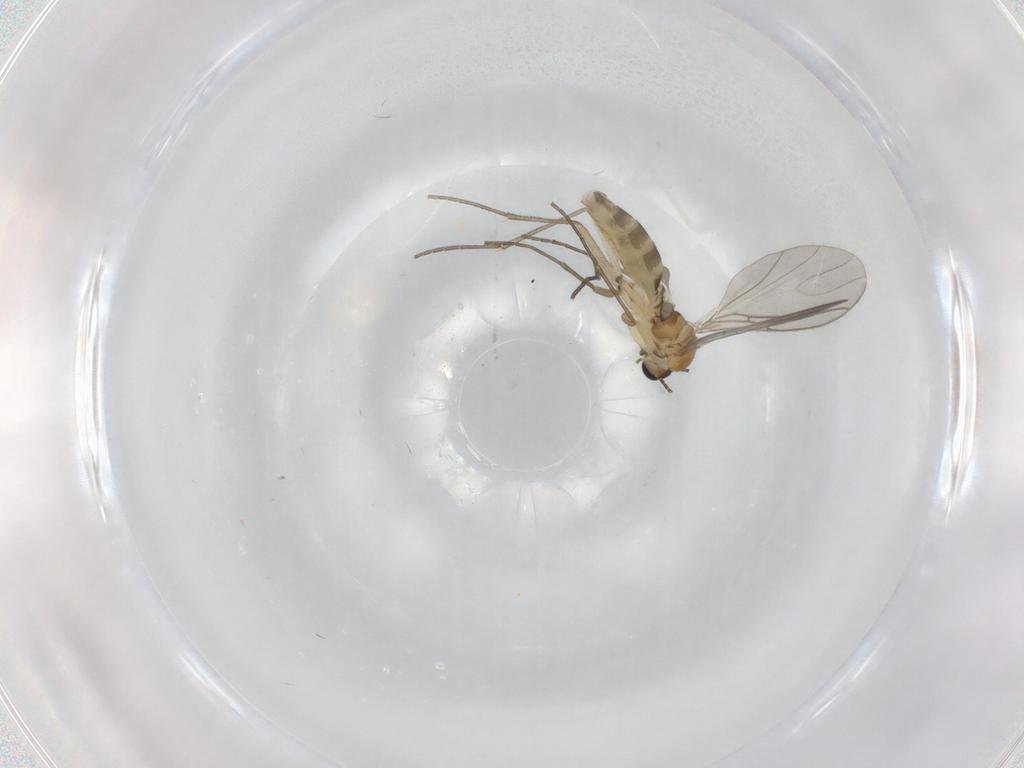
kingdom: Animalia
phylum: Arthropoda
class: Insecta
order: Diptera
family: Sciaridae
